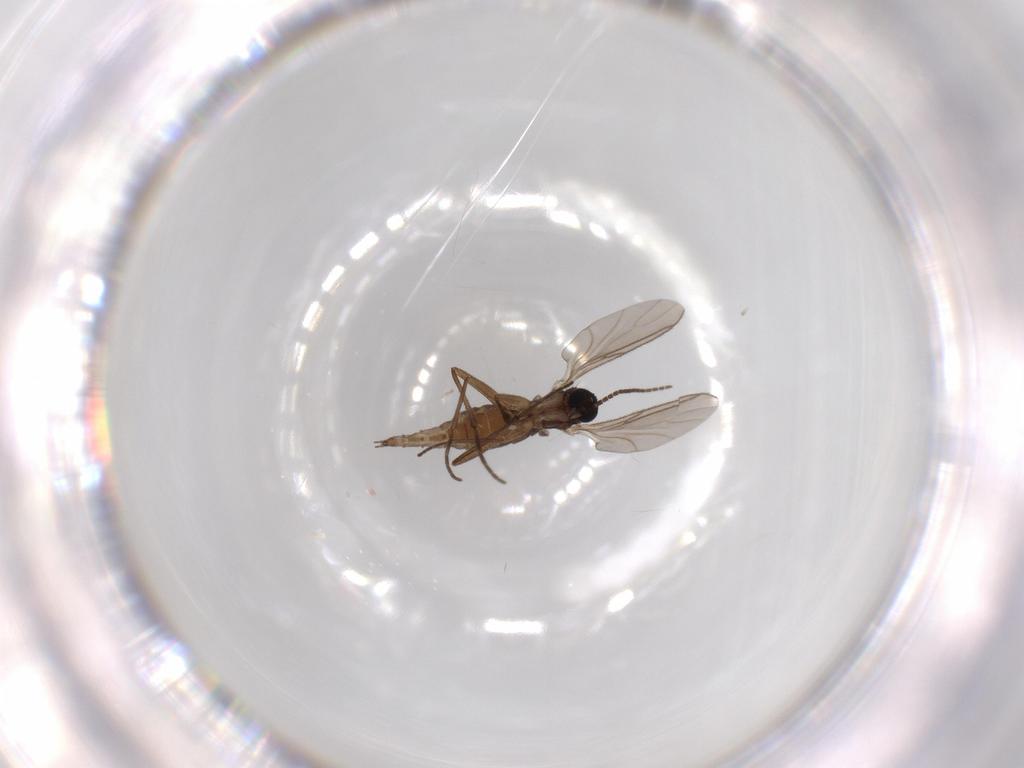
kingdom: Animalia
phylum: Arthropoda
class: Insecta
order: Diptera
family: Sciaridae
